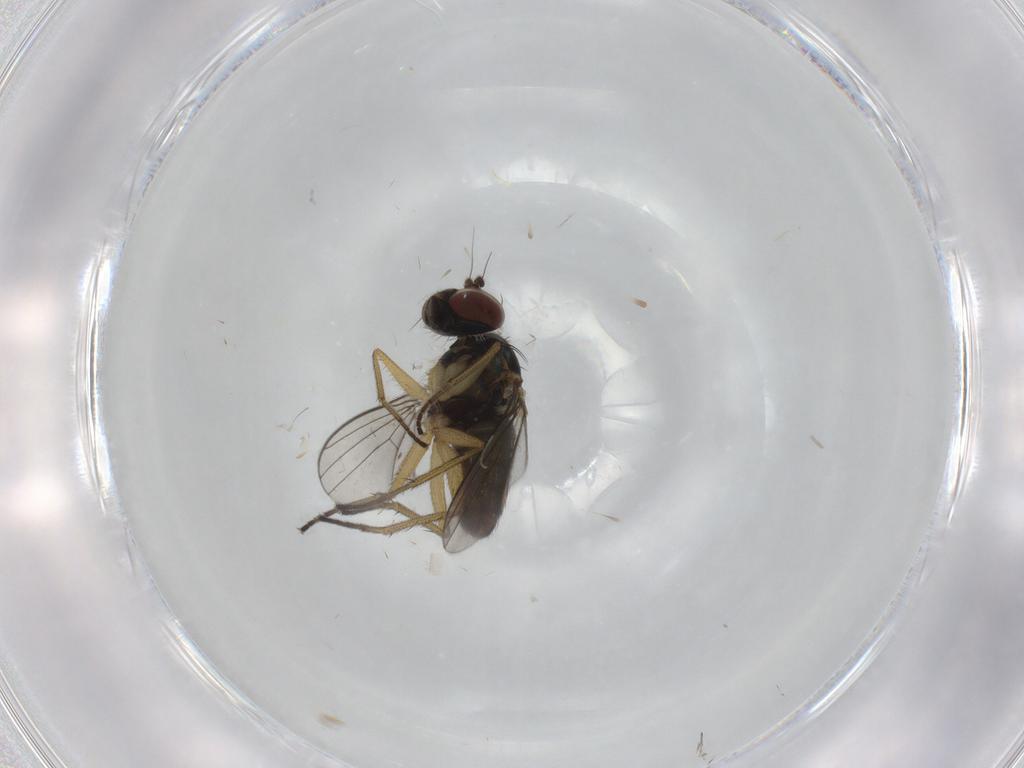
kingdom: Animalia
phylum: Arthropoda
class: Insecta
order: Diptera
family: Dolichopodidae
